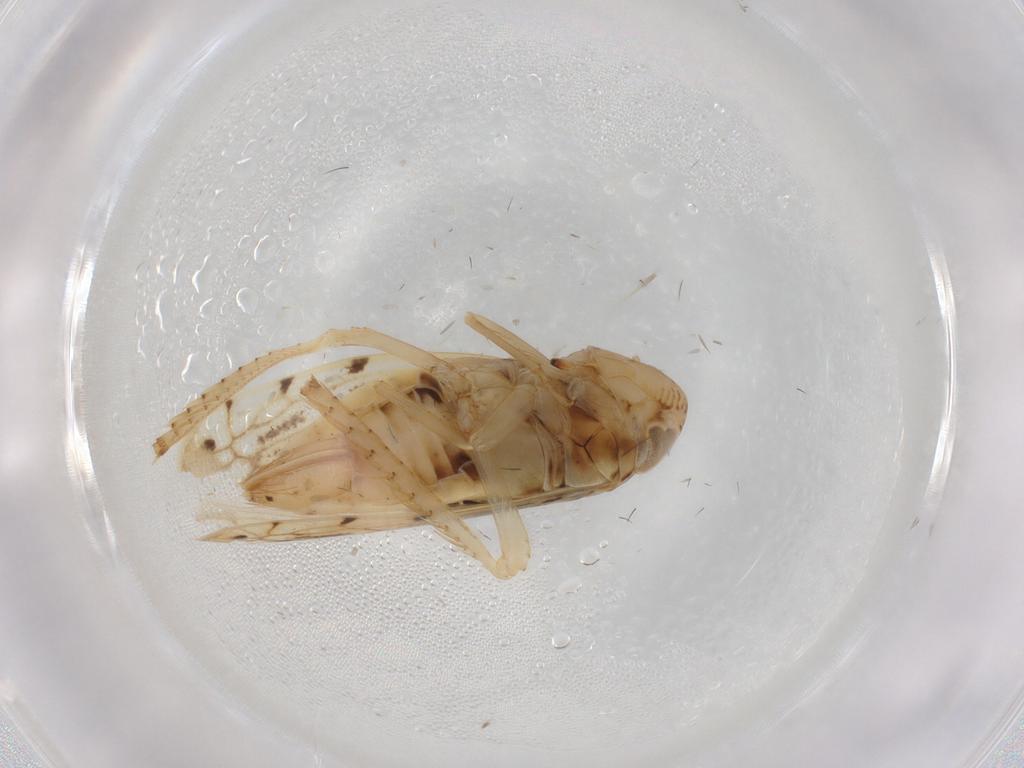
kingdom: Animalia
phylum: Arthropoda
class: Insecta
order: Hemiptera
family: Cicadellidae
